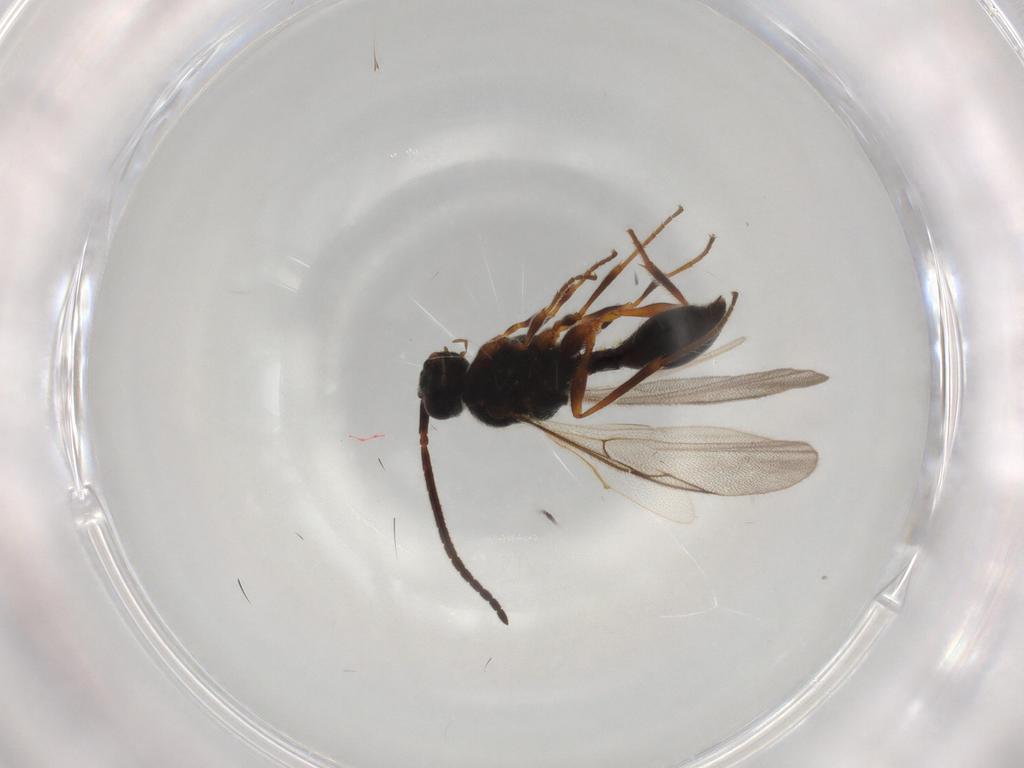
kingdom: Animalia
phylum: Arthropoda
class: Insecta
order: Hymenoptera
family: Diapriidae
